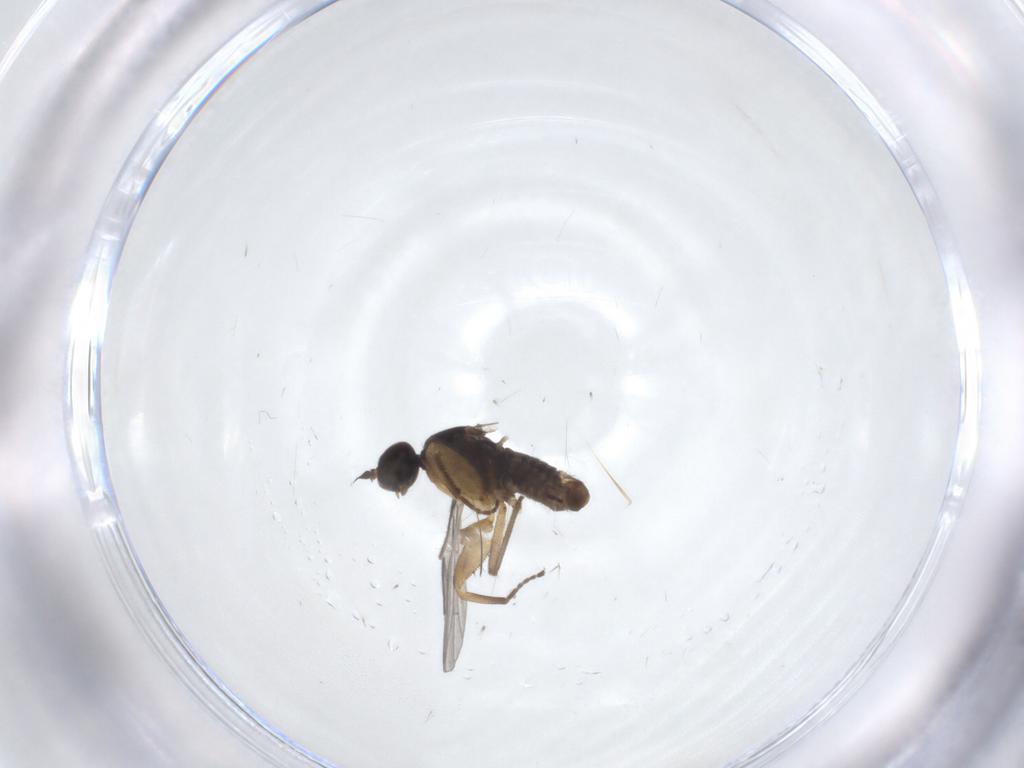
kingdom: Animalia
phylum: Arthropoda
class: Insecta
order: Diptera
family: Empididae
